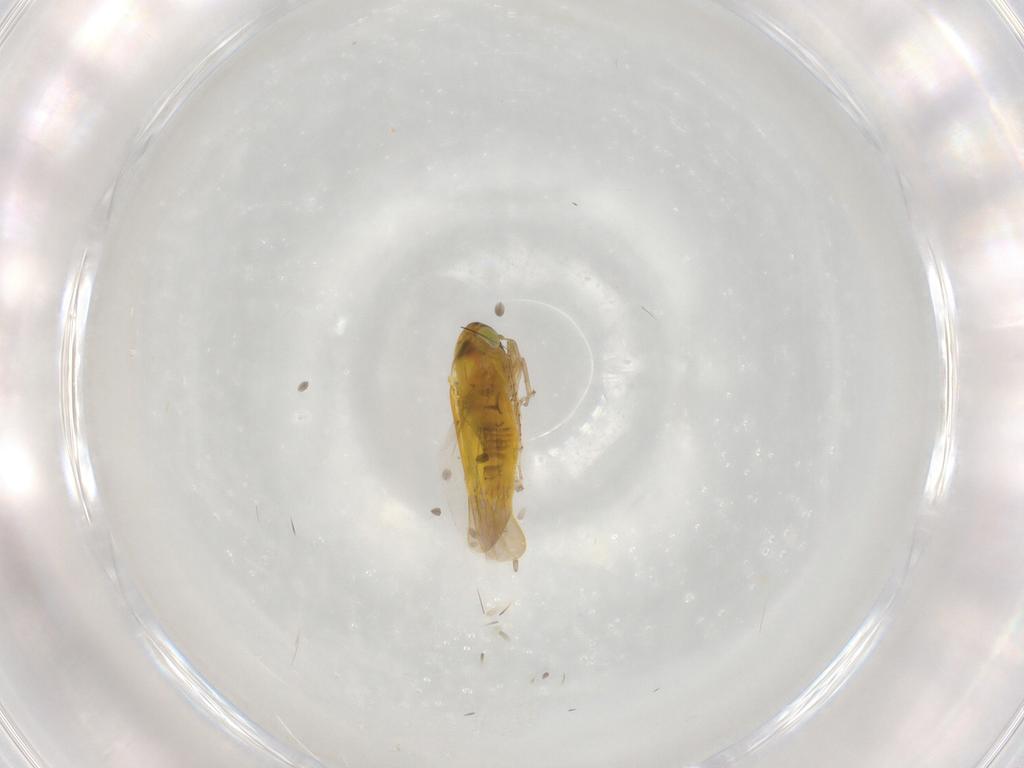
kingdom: Animalia
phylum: Arthropoda
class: Insecta
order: Hemiptera
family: Cicadellidae
